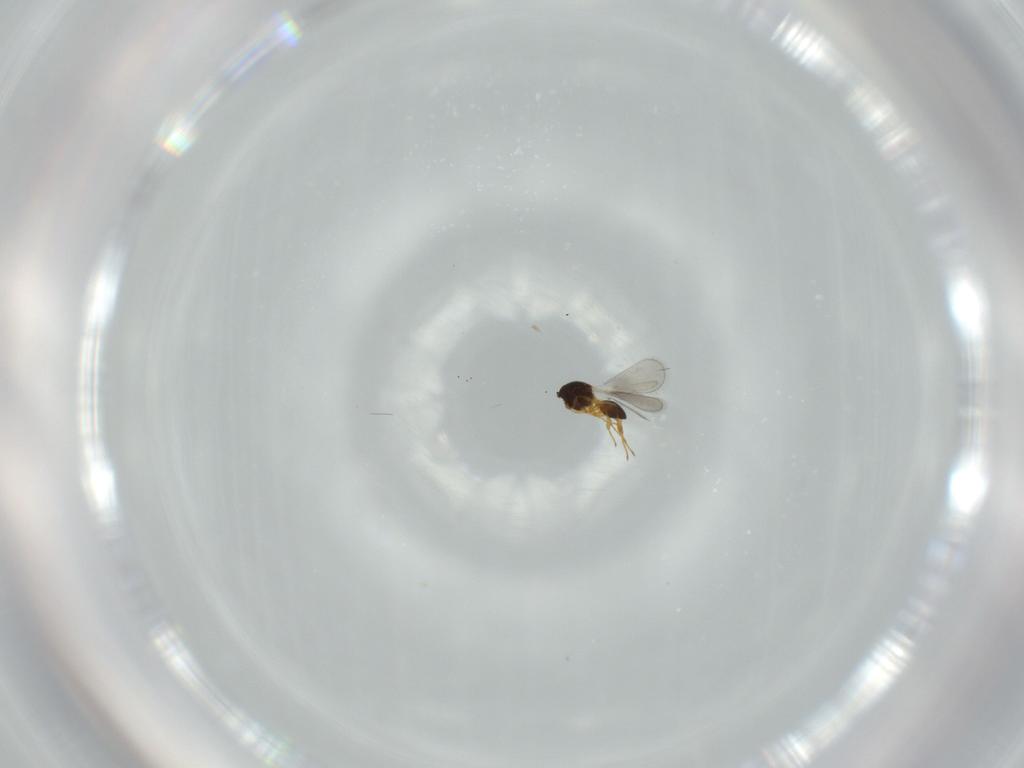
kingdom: Animalia
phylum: Arthropoda
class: Insecta
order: Hymenoptera
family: Platygastridae
